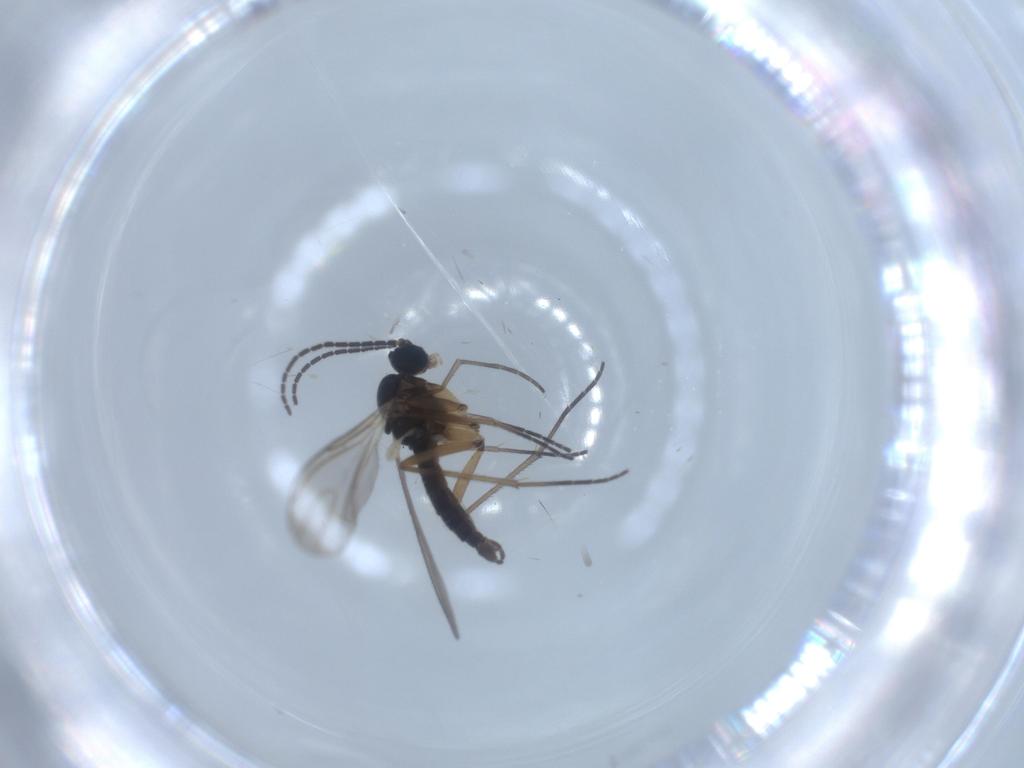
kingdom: Animalia
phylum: Arthropoda
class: Insecta
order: Diptera
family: Sciaridae
